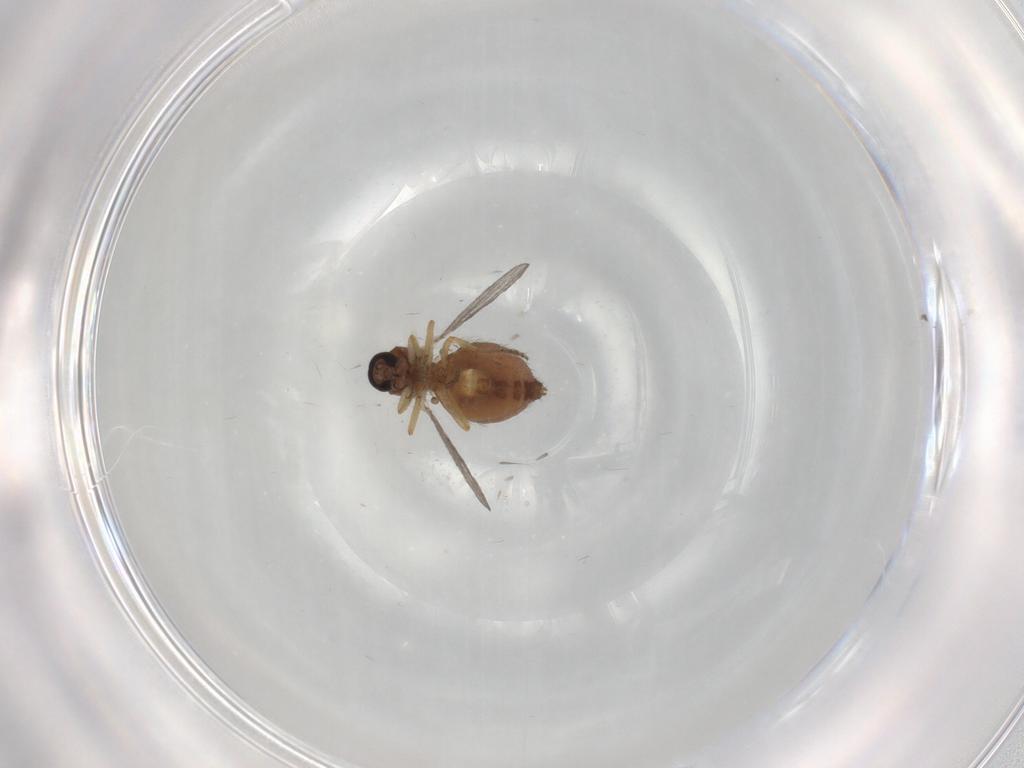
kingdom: Animalia
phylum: Arthropoda
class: Insecta
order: Diptera
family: Ceratopogonidae
